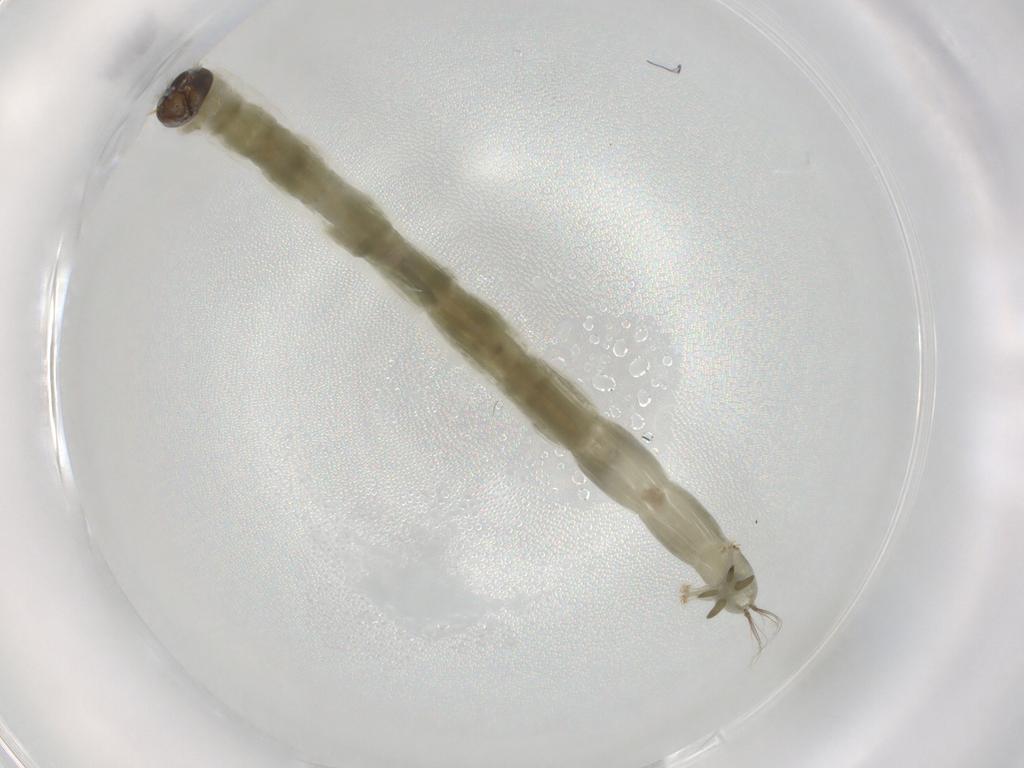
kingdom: Animalia
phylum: Arthropoda
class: Insecta
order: Diptera
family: Chironomidae
